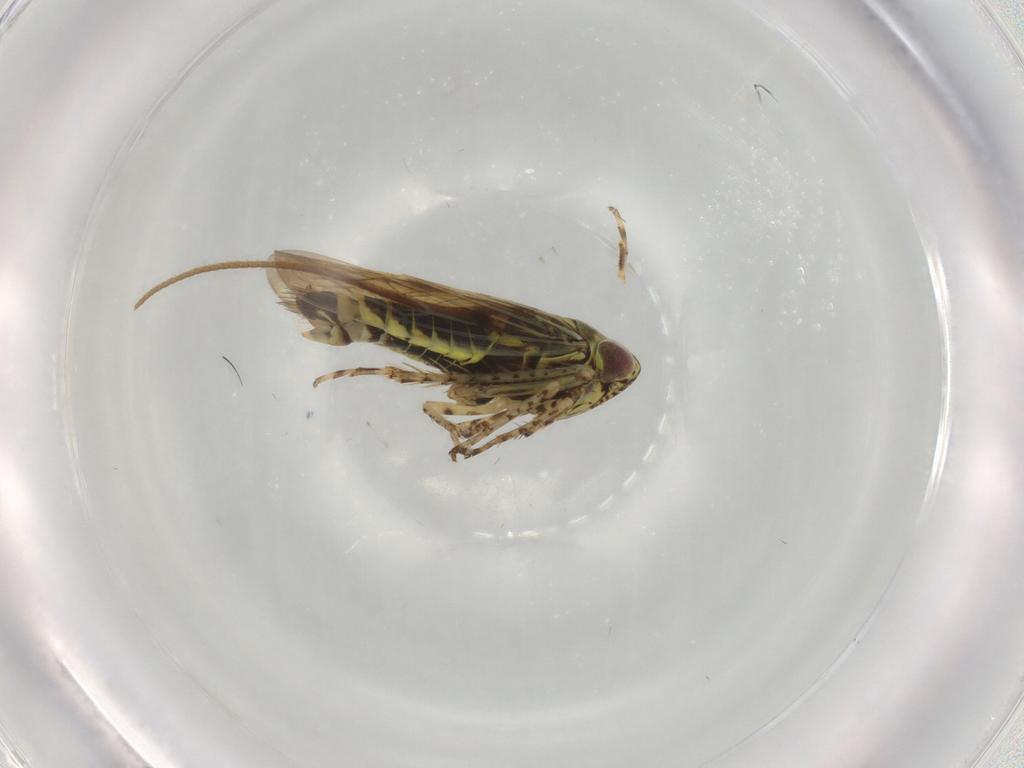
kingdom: Animalia
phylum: Arthropoda
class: Insecta
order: Hemiptera
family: Cicadellidae
